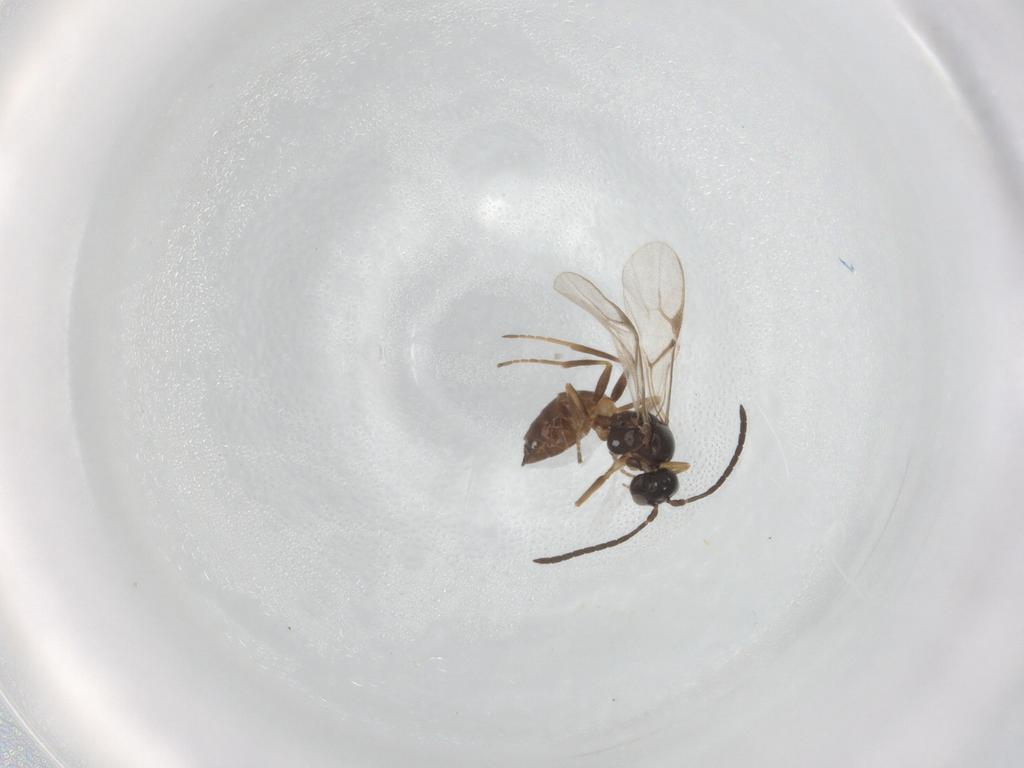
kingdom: Animalia
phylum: Arthropoda
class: Insecta
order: Hymenoptera
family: Braconidae
